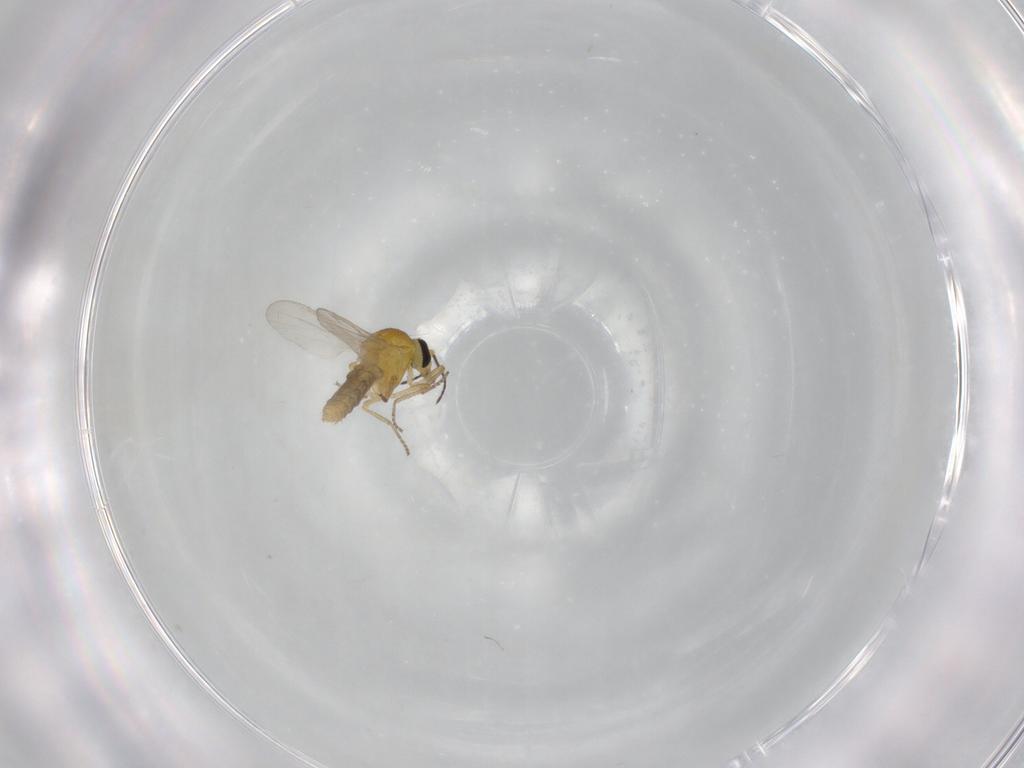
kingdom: Animalia
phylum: Arthropoda
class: Insecta
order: Diptera
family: Ceratopogonidae
